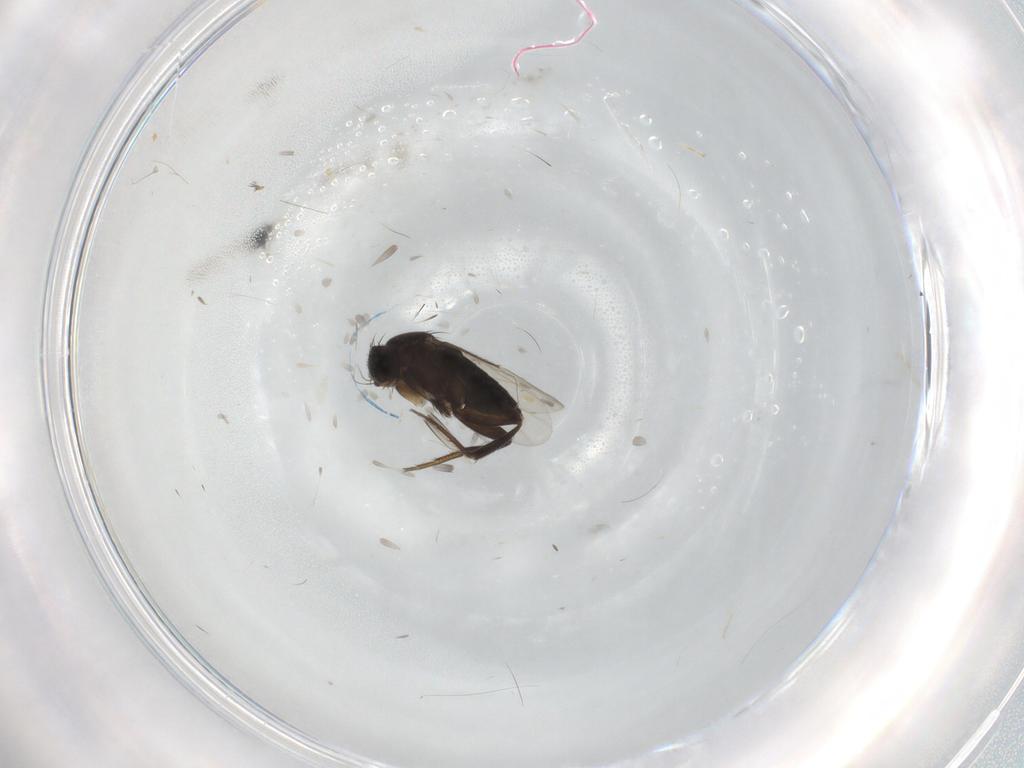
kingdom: Animalia
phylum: Arthropoda
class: Insecta
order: Diptera
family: Phoridae
